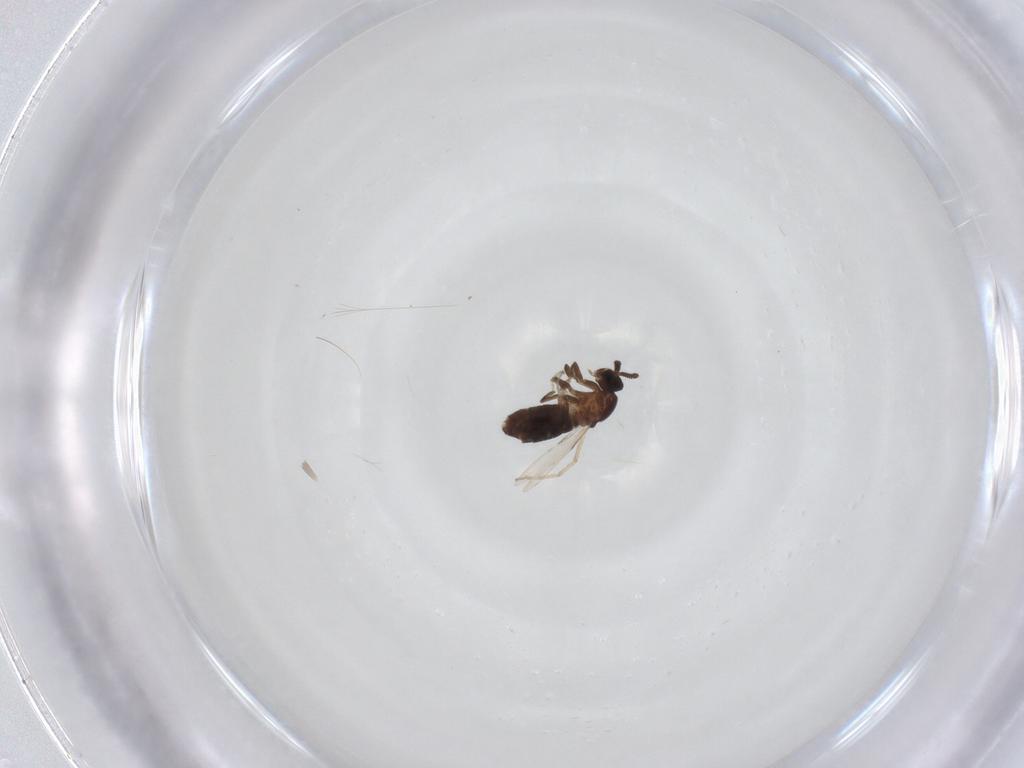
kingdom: Animalia
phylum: Arthropoda
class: Insecta
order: Diptera
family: Scatopsidae
